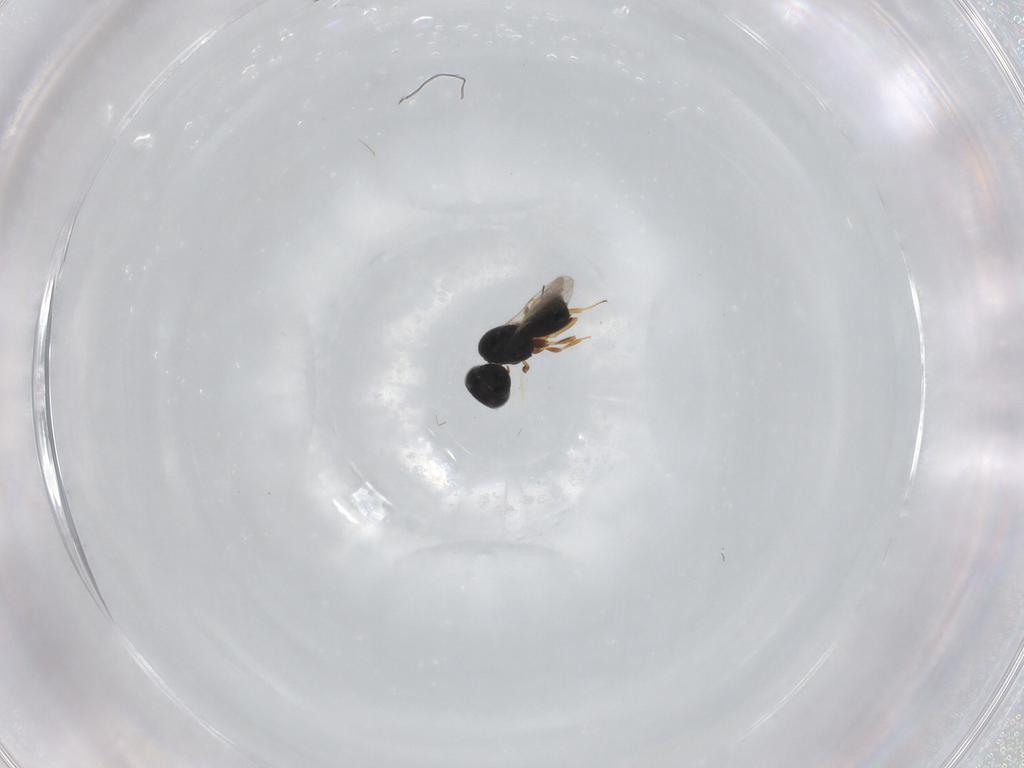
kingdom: Animalia
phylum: Arthropoda
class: Insecta
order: Hymenoptera
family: Scelionidae
